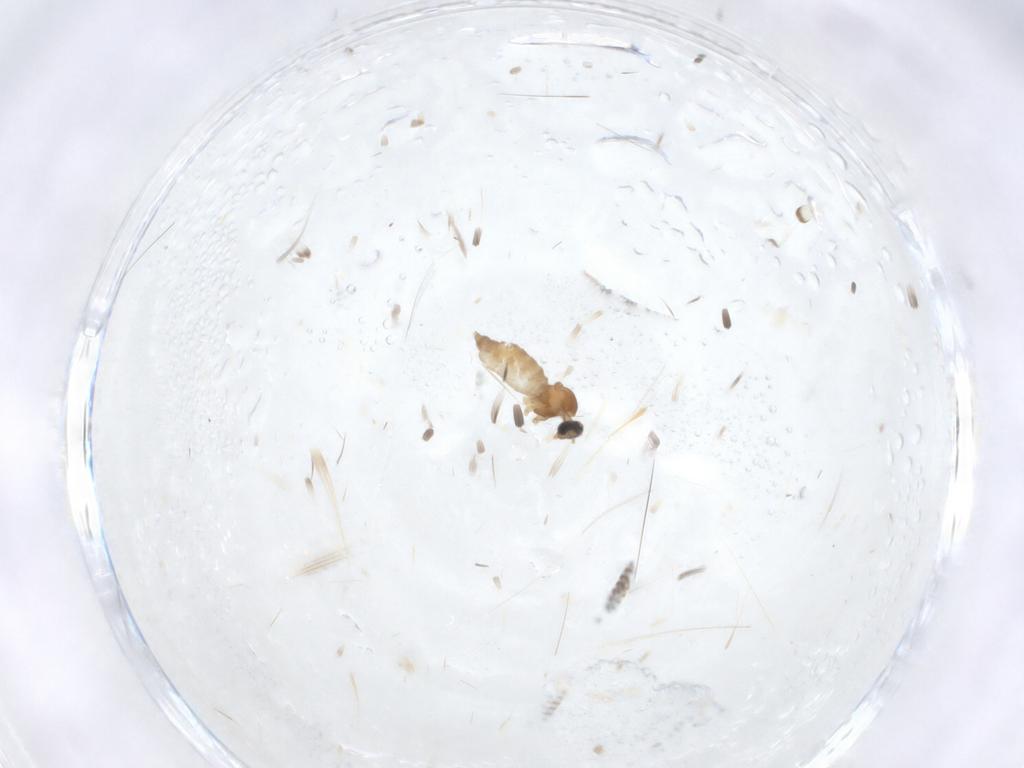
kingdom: Animalia
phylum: Arthropoda
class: Insecta
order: Diptera
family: Cecidomyiidae
